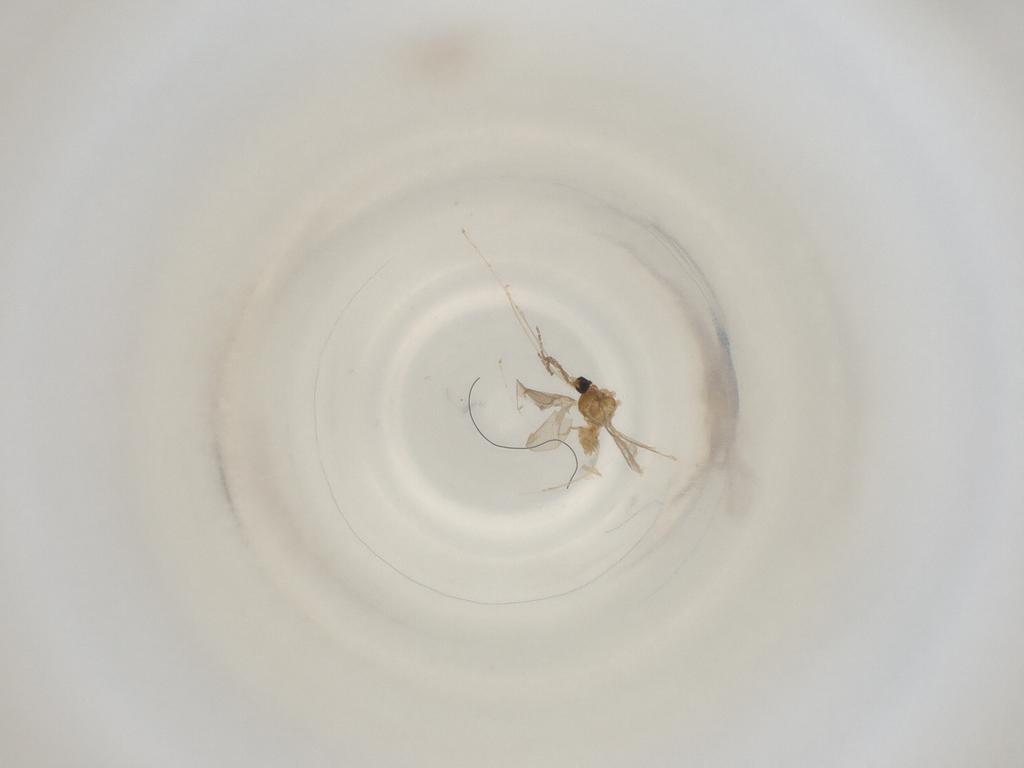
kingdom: Animalia
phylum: Arthropoda
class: Insecta
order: Diptera
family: Cecidomyiidae
